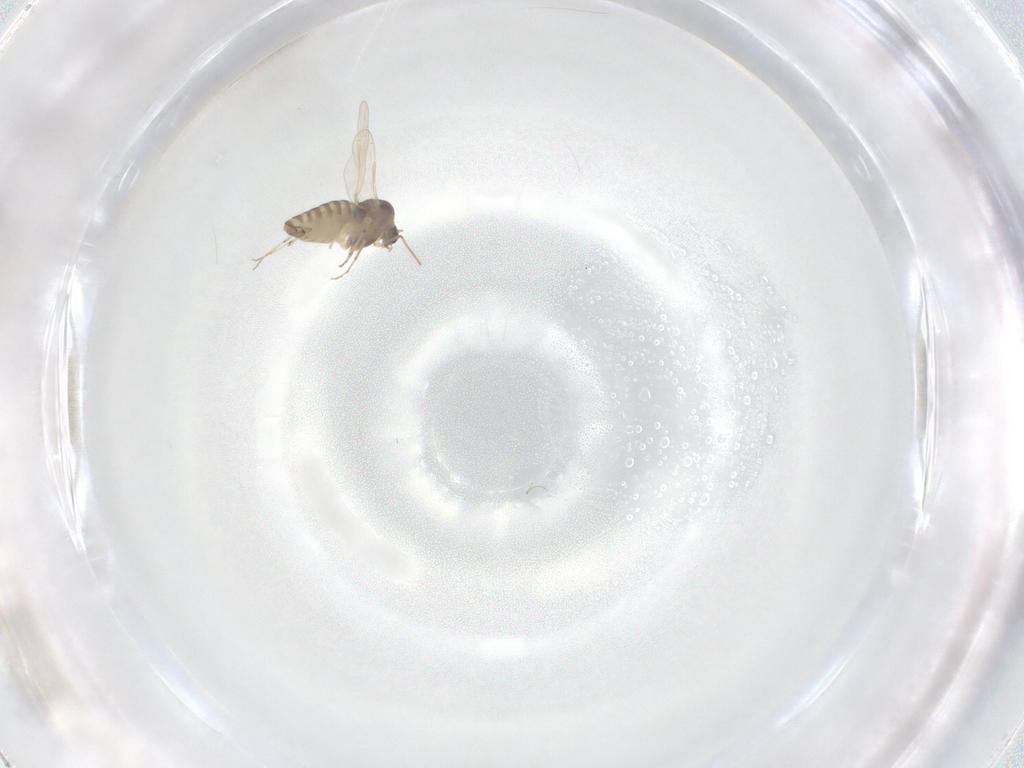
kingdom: Animalia
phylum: Arthropoda
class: Insecta
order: Diptera
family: Chironomidae
